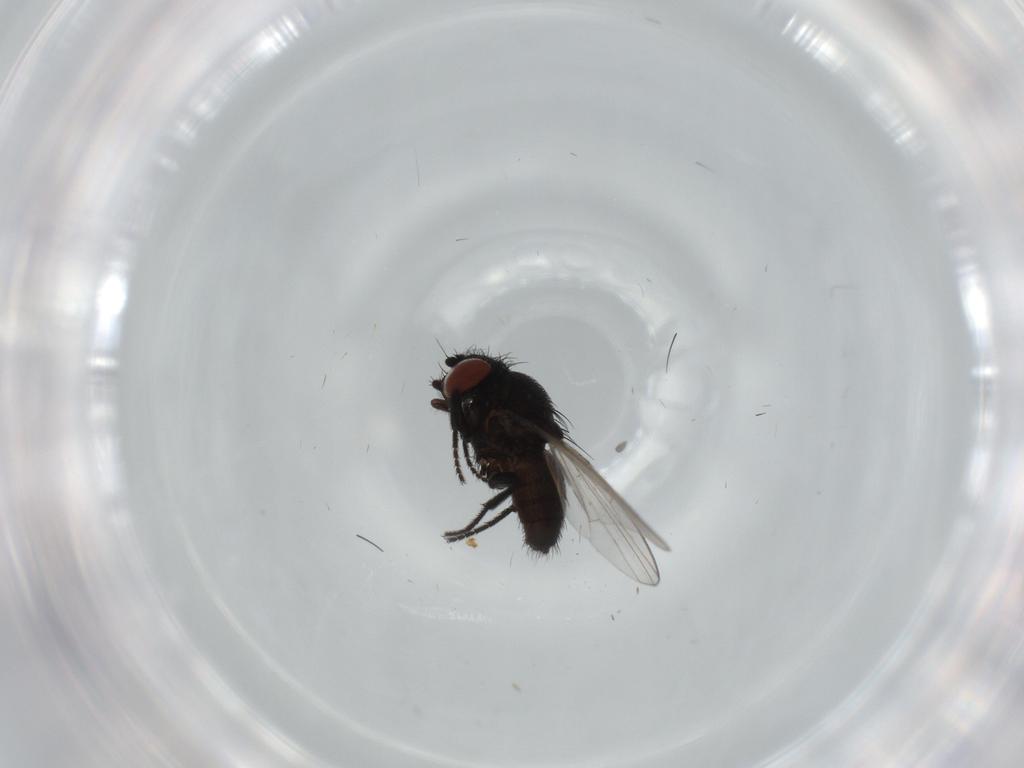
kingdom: Animalia
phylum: Arthropoda
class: Insecta
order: Diptera
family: Milichiidae
